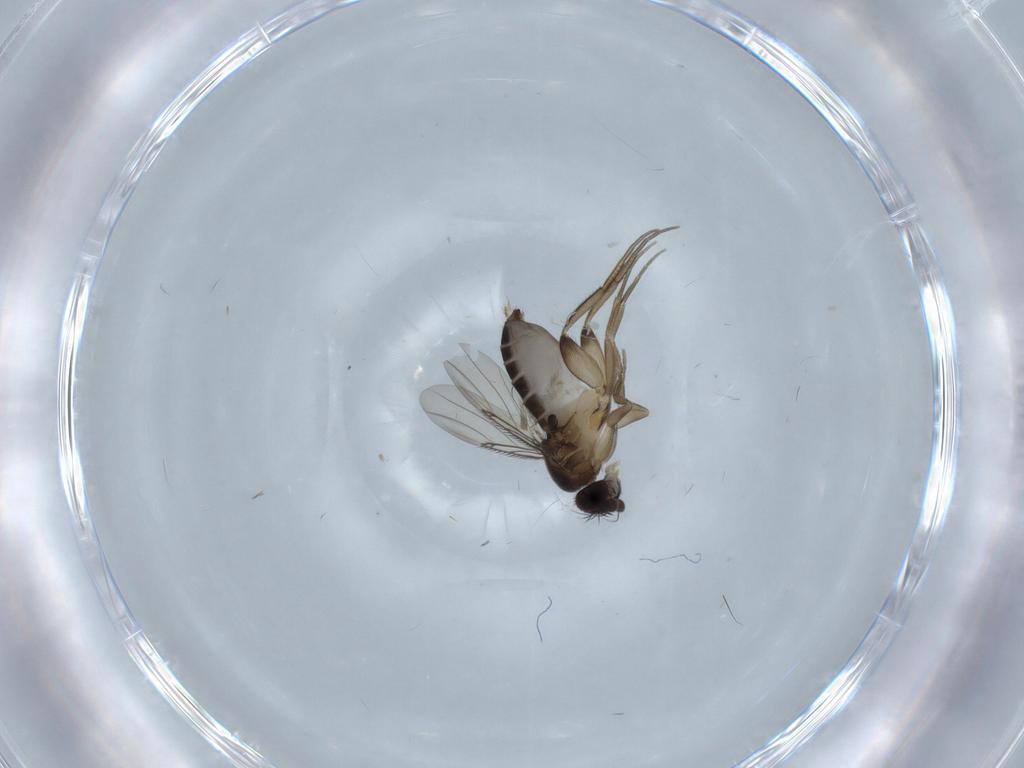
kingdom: Animalia
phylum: Arthropoda
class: Insecta
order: Diptera
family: Phoridae
